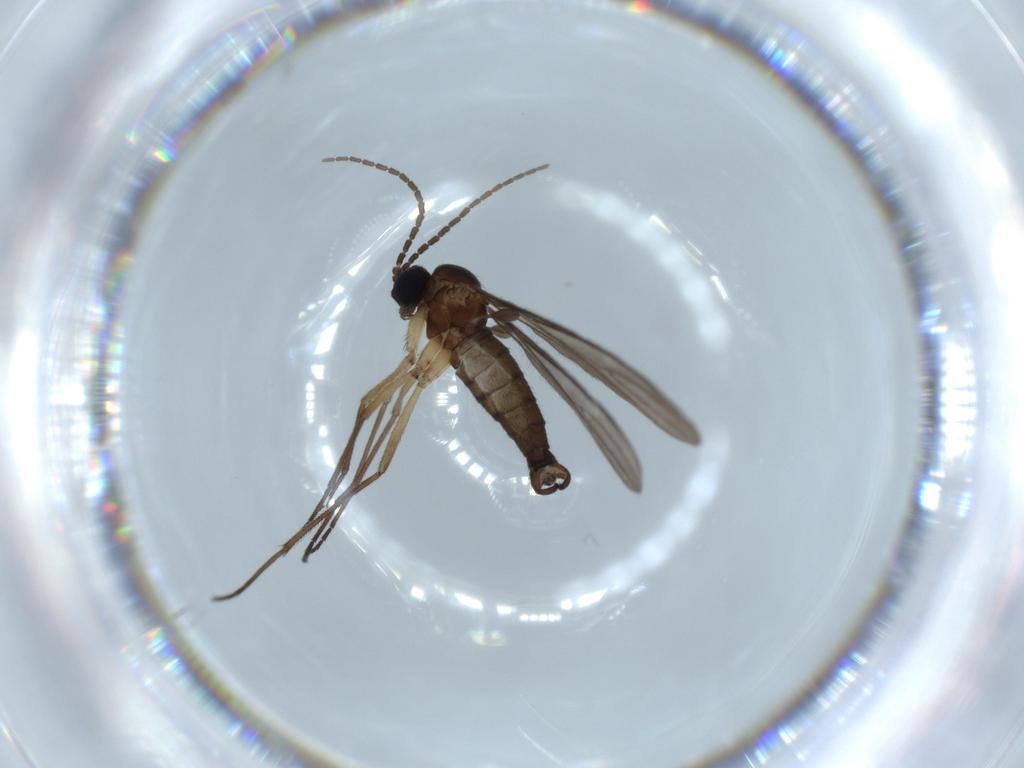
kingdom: Animalia
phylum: Arthropoda
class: Insecta
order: Diptera
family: Sciaridae
